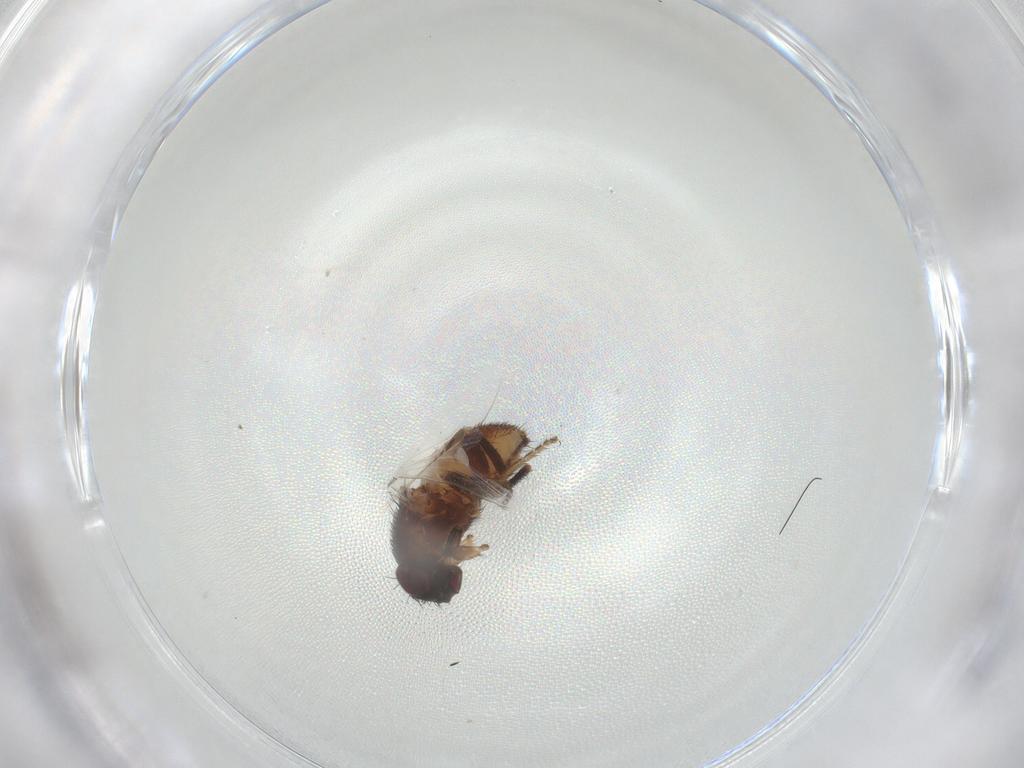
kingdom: Animalia
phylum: Arthropoda
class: Insecta
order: Diptera
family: Milichiidae
